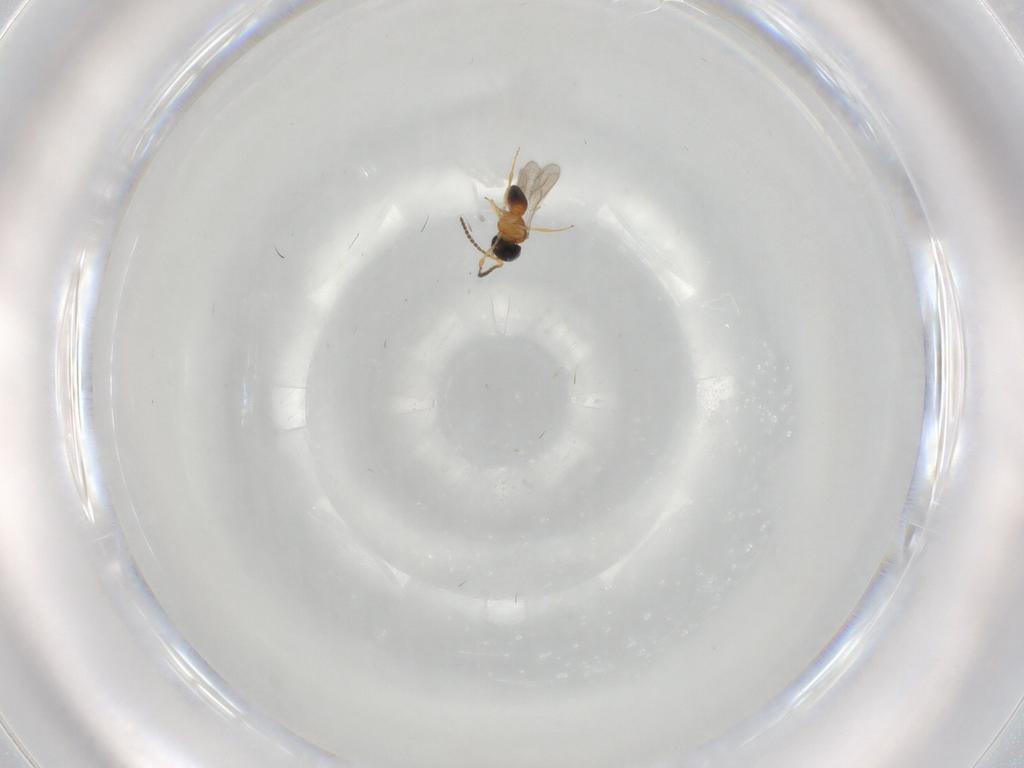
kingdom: Animalia
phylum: Arthropoda
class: Insecta
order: Hymenoptera
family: Scelionidae
